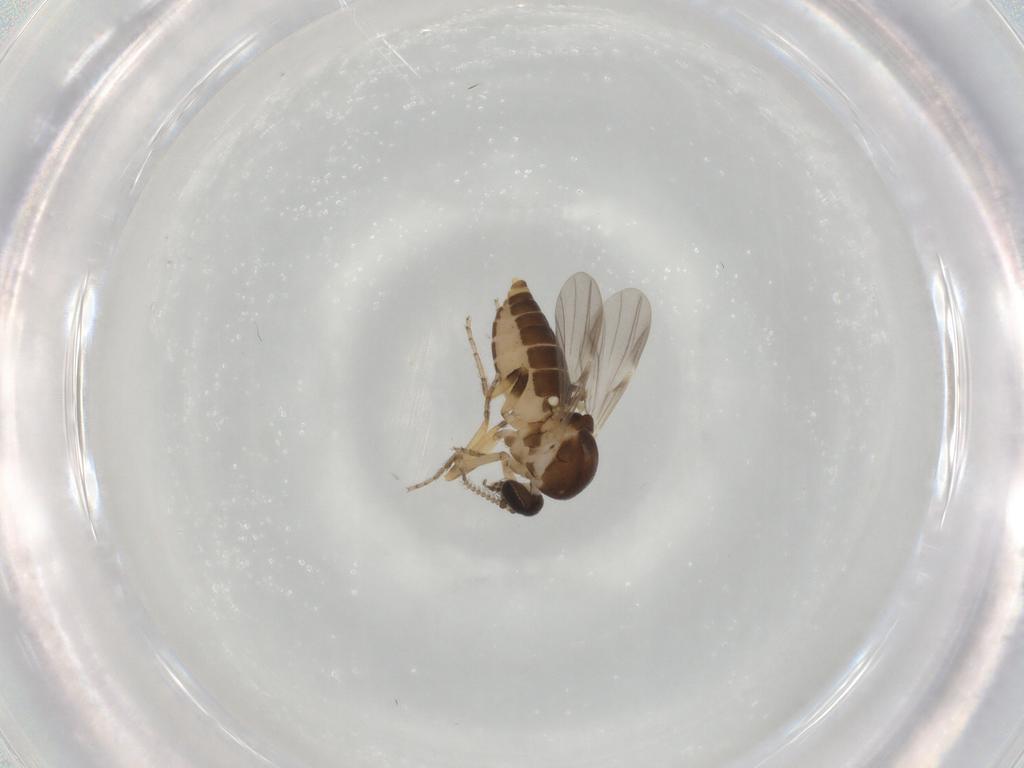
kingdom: Animalia
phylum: Arthropoda
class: Insecta
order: Diptera
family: Ceratopogonidae
